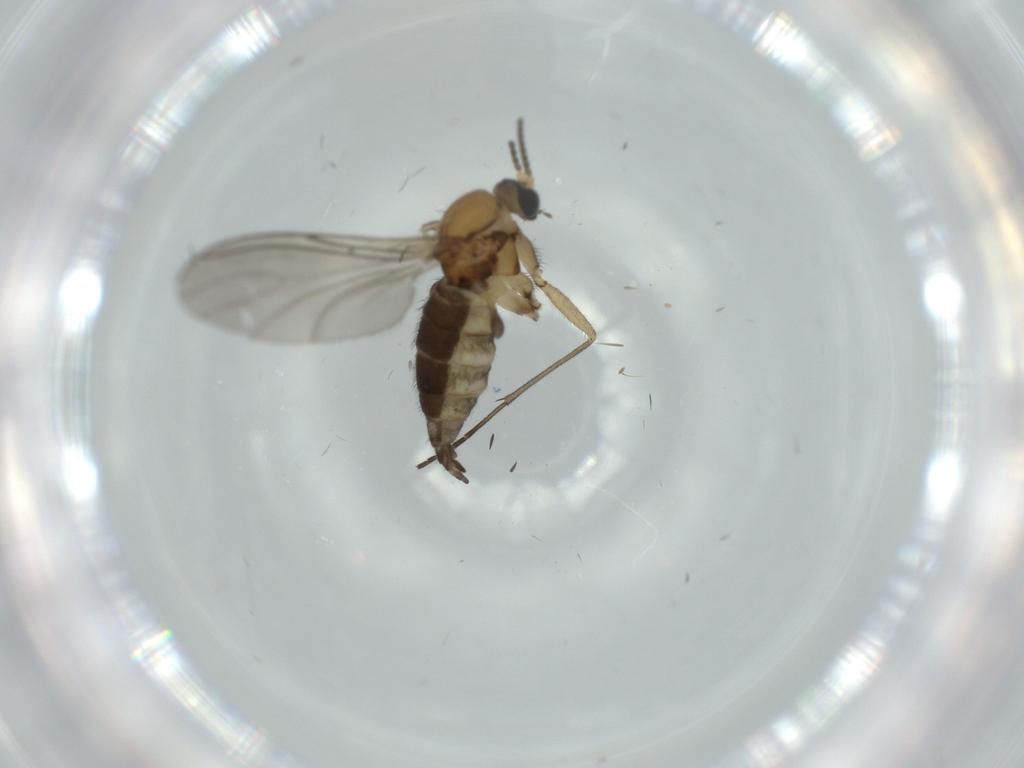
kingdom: Animalia
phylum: Arthropoda
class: Insecta
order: Diptera
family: Sciaridae
